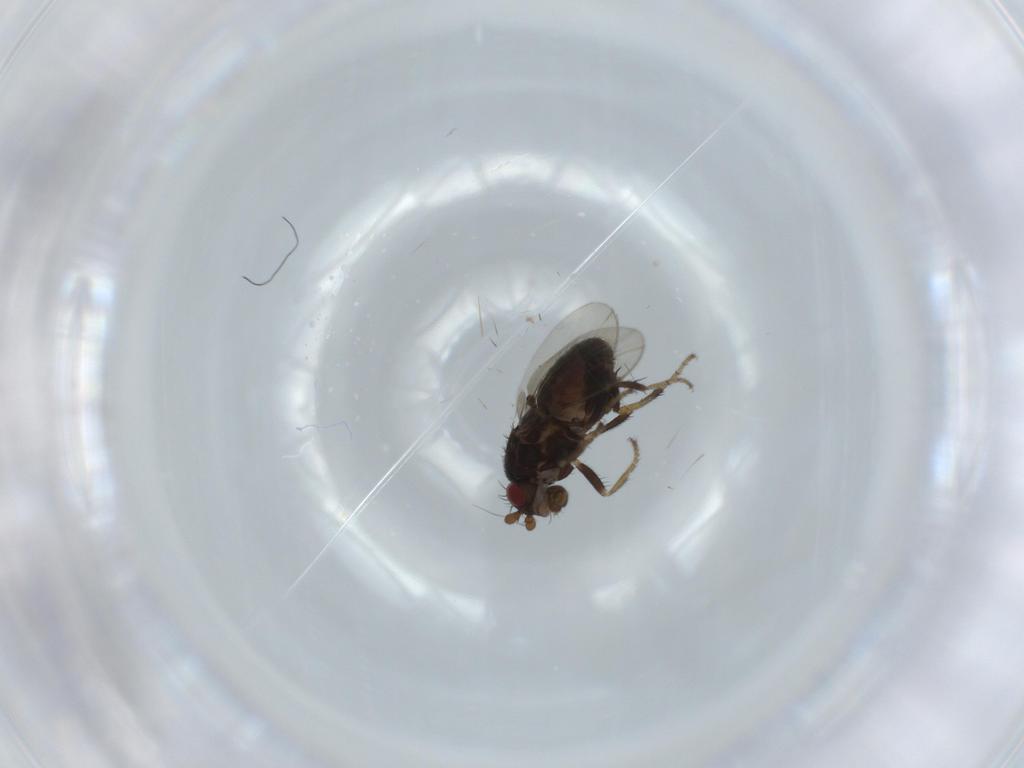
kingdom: Animalia
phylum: Arthropoda
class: Insecta
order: Diptera
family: Sphaeroceridae
